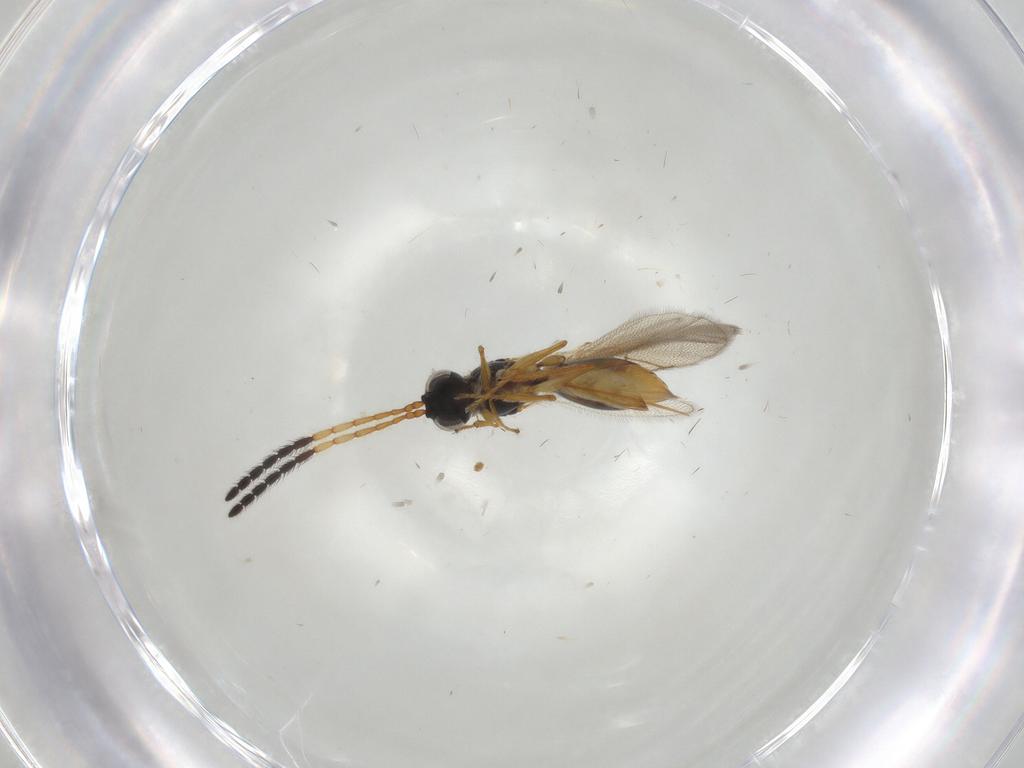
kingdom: Animalia
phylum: Arthropoda
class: Insecta
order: Hymenoptera
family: Figitidae
